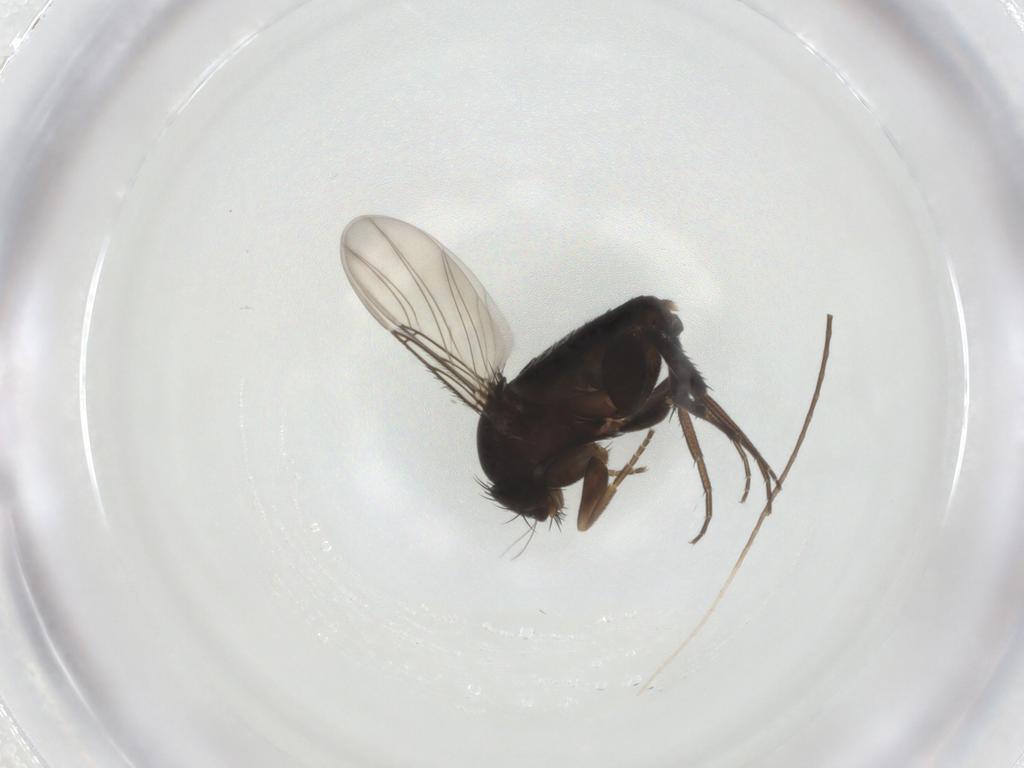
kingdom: Animalia
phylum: Arthropoda
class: Insecta
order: Diptera
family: Phoridae
